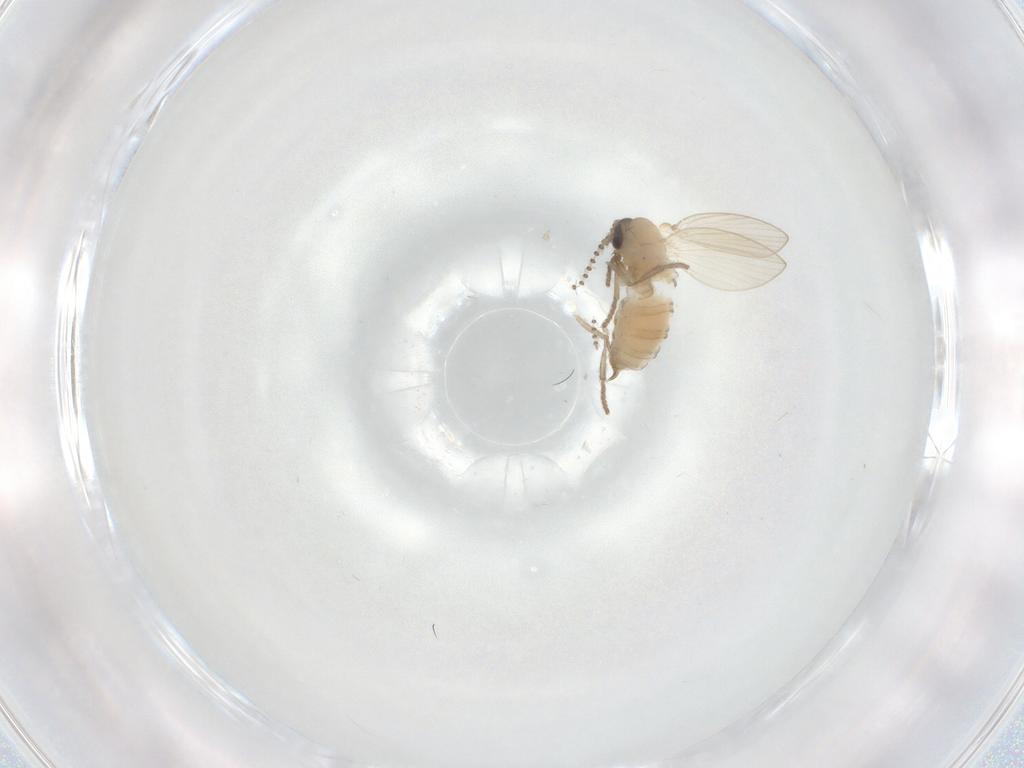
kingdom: Animalia
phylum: Arthropoda
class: Insecta
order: Diptera
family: Psychodidae
